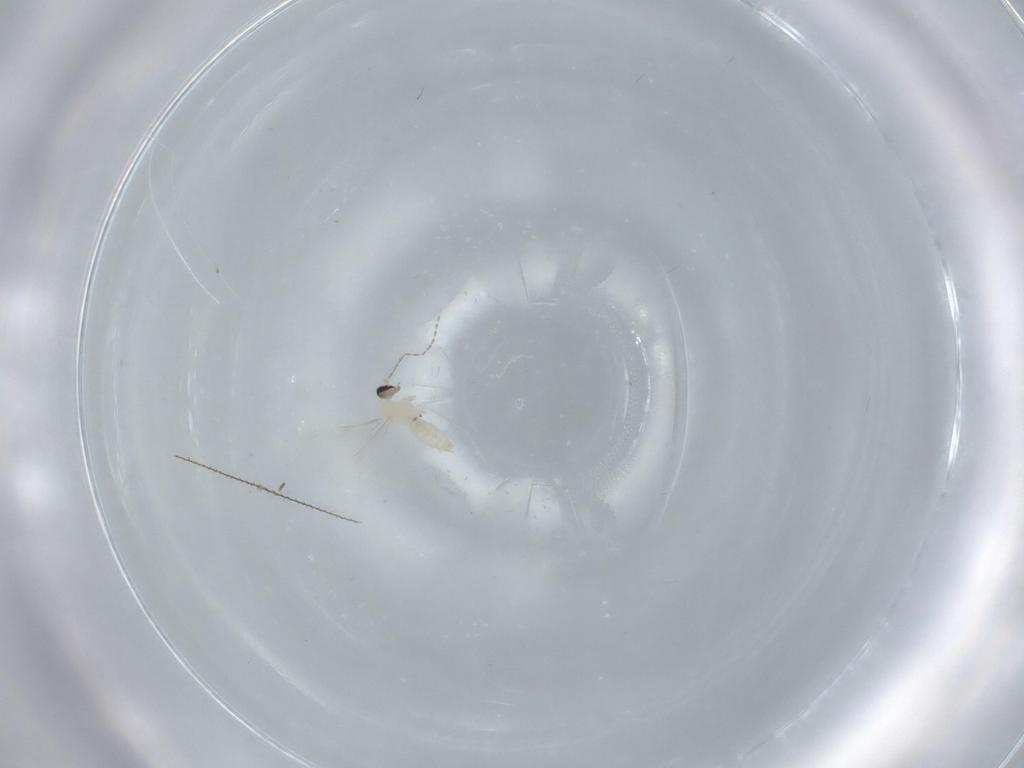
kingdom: Animalia
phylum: Arthropoda
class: Insecta
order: Diptera
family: Cecidomyiidae
